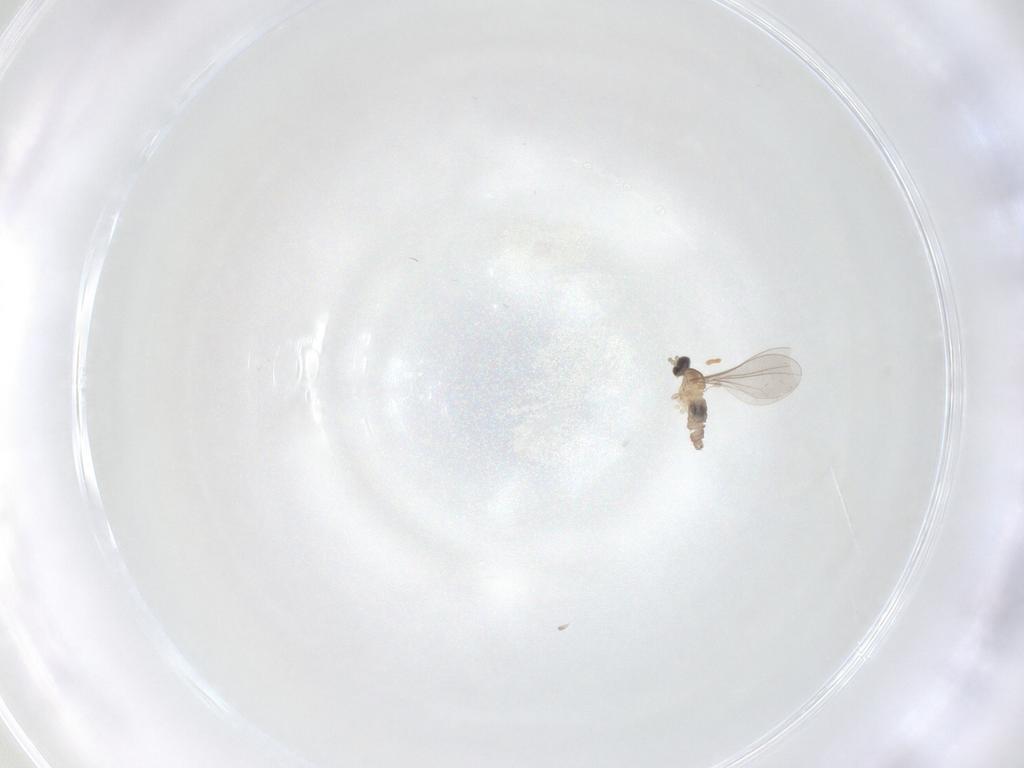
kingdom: Animalia
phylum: Arthropoda
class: Insecta
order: Diptera
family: Cecidomyiidae
